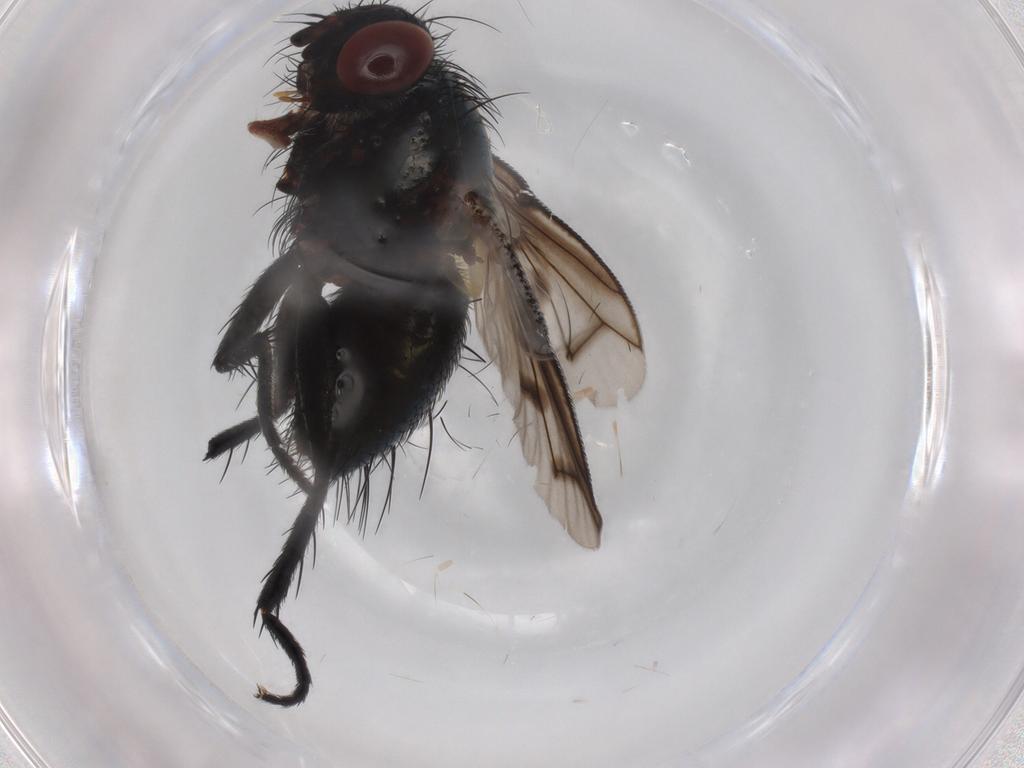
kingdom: Animalia
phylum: Arthropoda
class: Insecta
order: Diptera
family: Tachinidae
